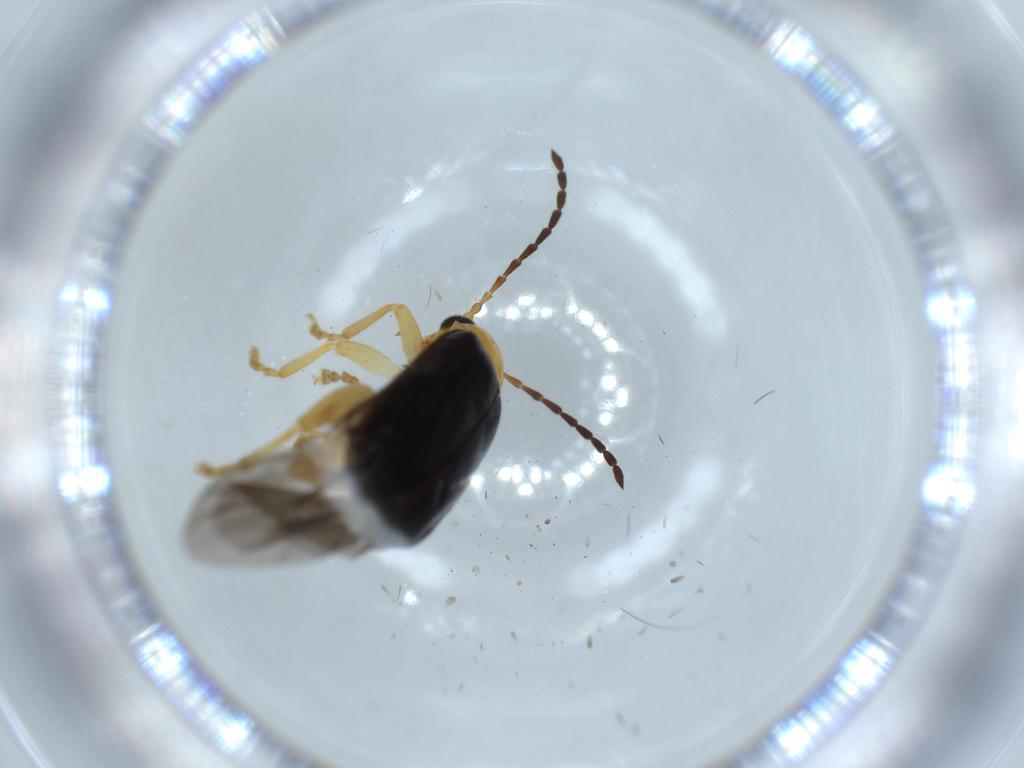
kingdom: Animalia
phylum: Arthropoda
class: Insecta
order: Coleoptera
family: Chrysomelidae
